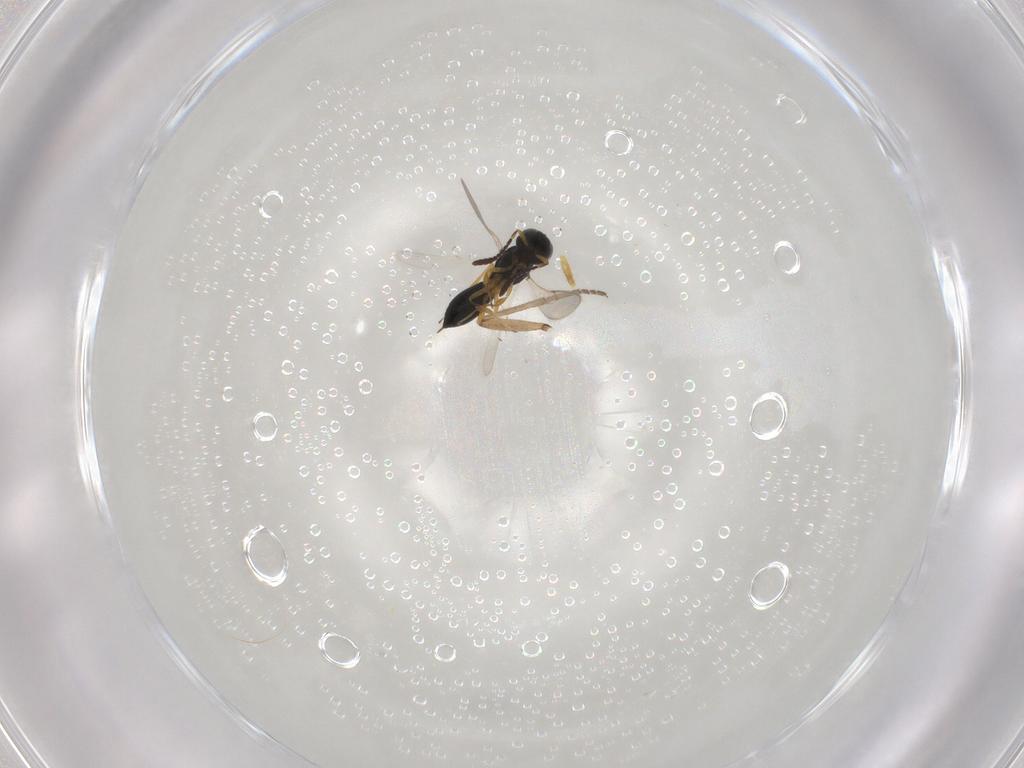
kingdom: Animalia
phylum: Arthropoda
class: Insecta
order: Hymenoptera
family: Scelionidae
